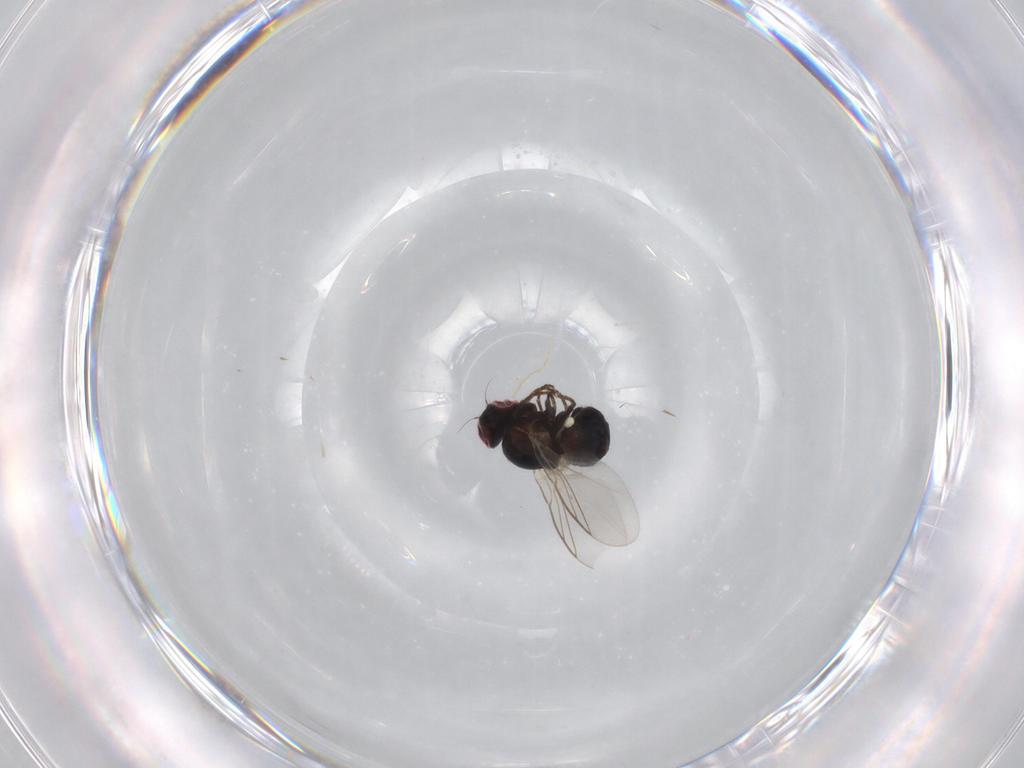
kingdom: Animalia
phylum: Arthropoda
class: Insecta
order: Diptera
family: Agromyzidae
